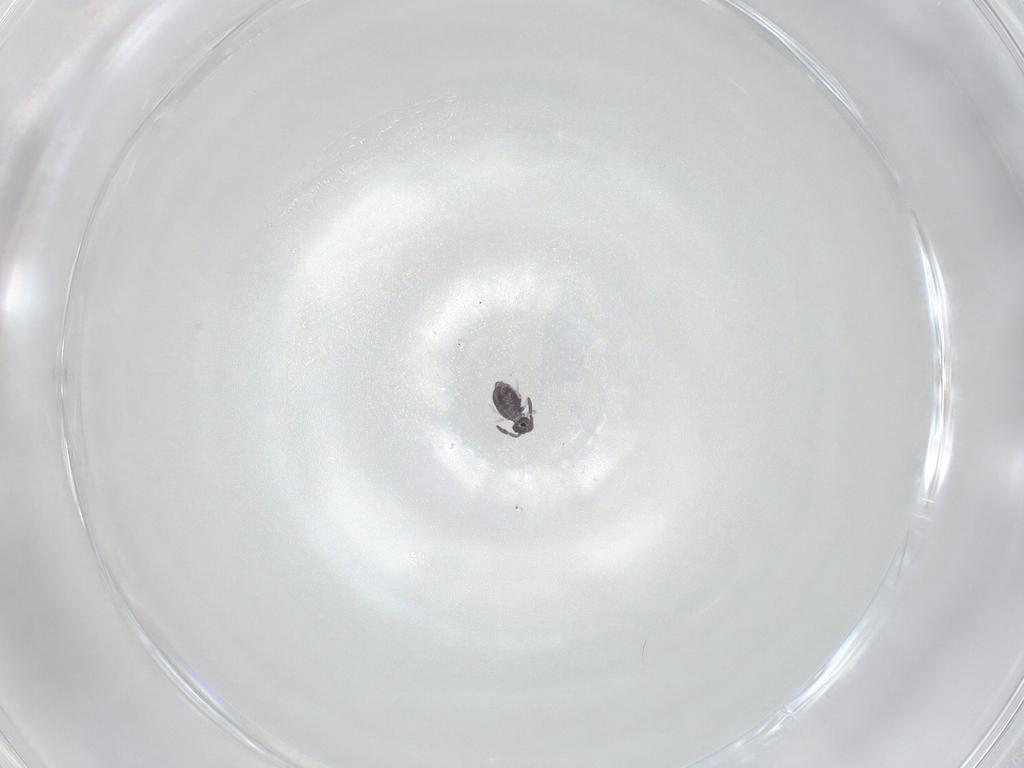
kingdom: Animalia
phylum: Arthropoda
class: Collembola
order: Symphypleona
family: Katiannidae
